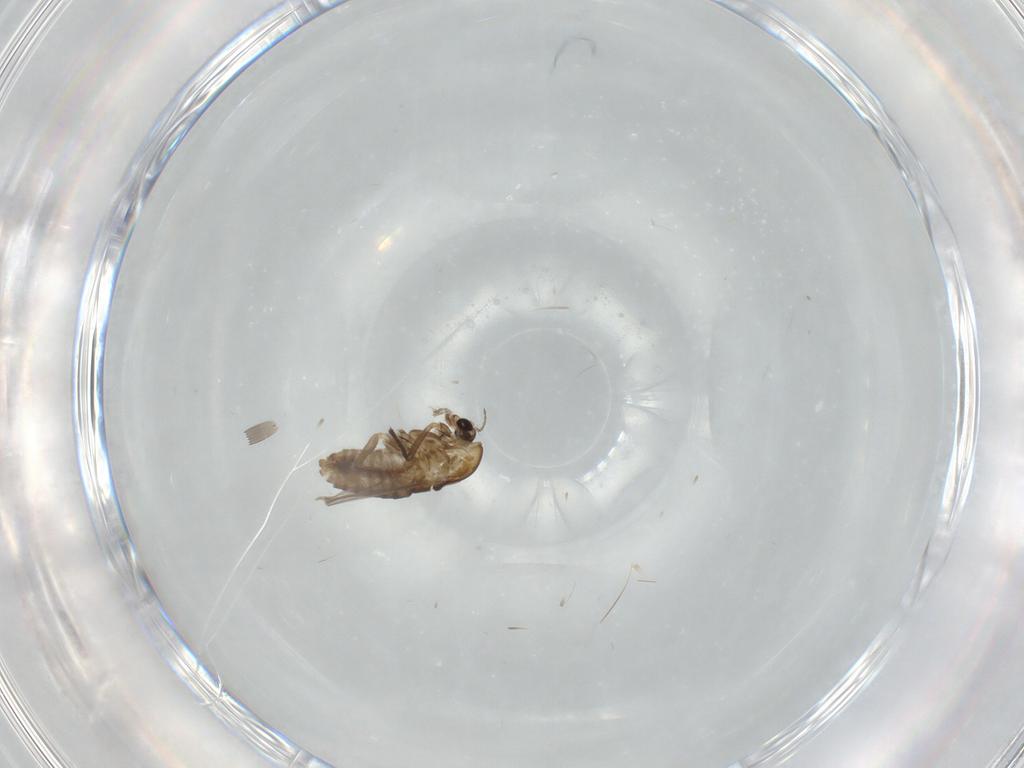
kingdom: Animalia
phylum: Arthropoda
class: Insecta
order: Diptera
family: Chironomidae
